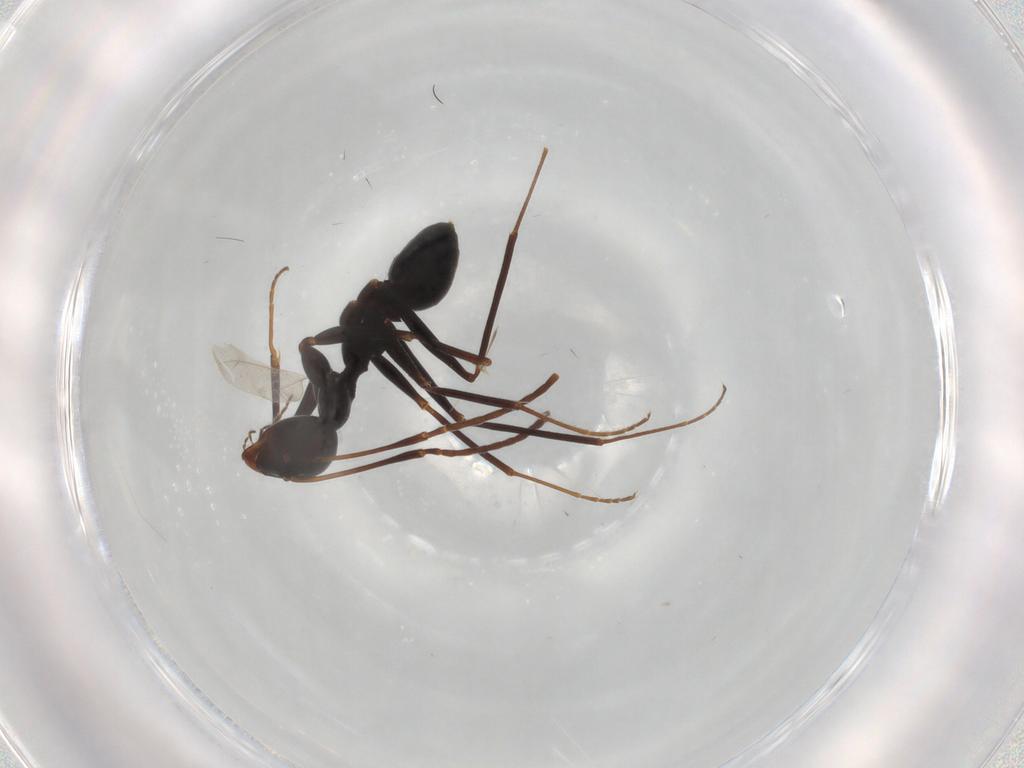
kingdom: Animalia
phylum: Arthropoda
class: Insecta
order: Hymenoptera
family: Formicidae
